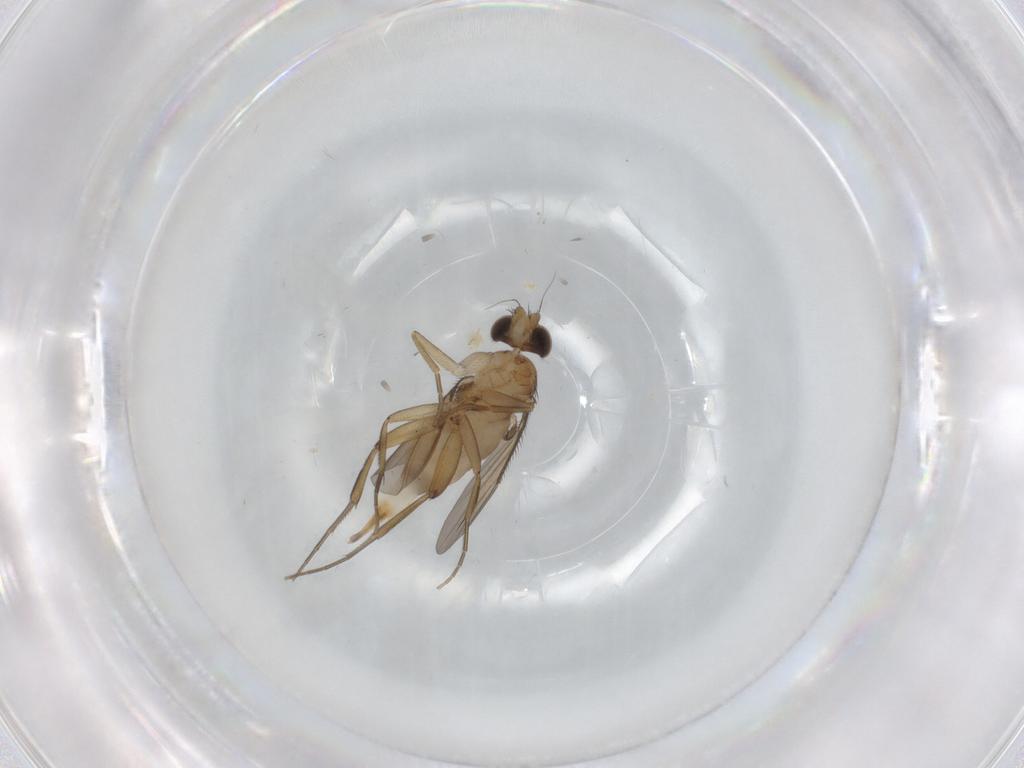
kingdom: Animalia
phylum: Arthropoda
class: Insecta
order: Diptera
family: Phoridae
